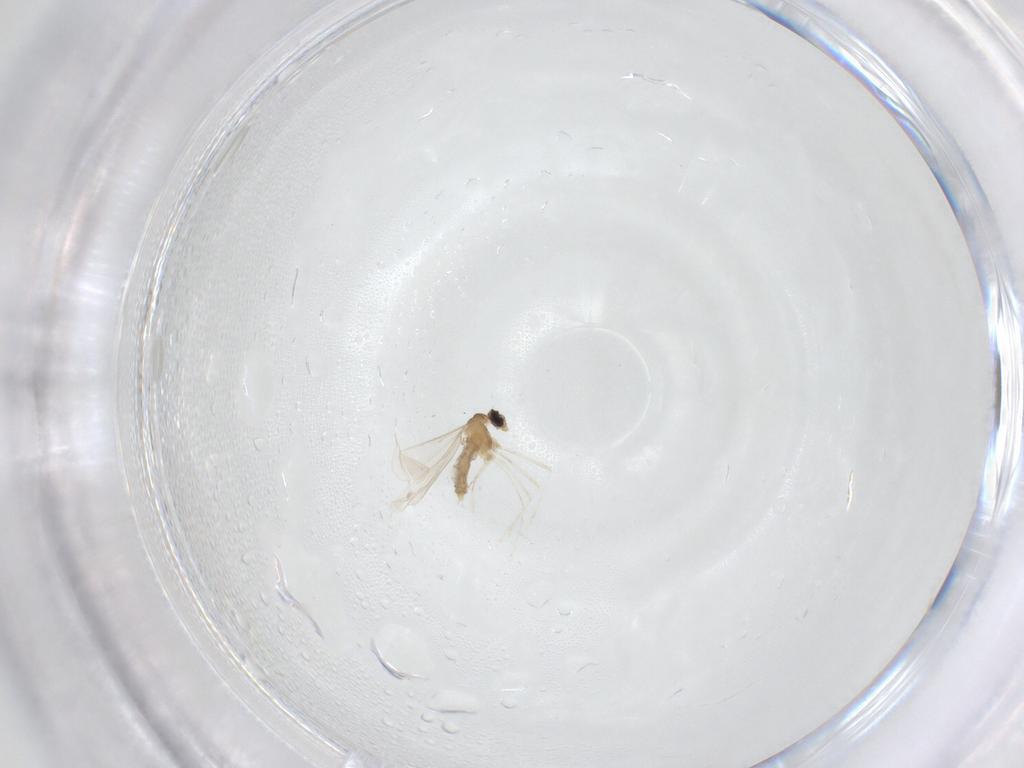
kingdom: Animalia
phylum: Arthropoda
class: Insecta
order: Diptera
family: Cecidomyiidae
